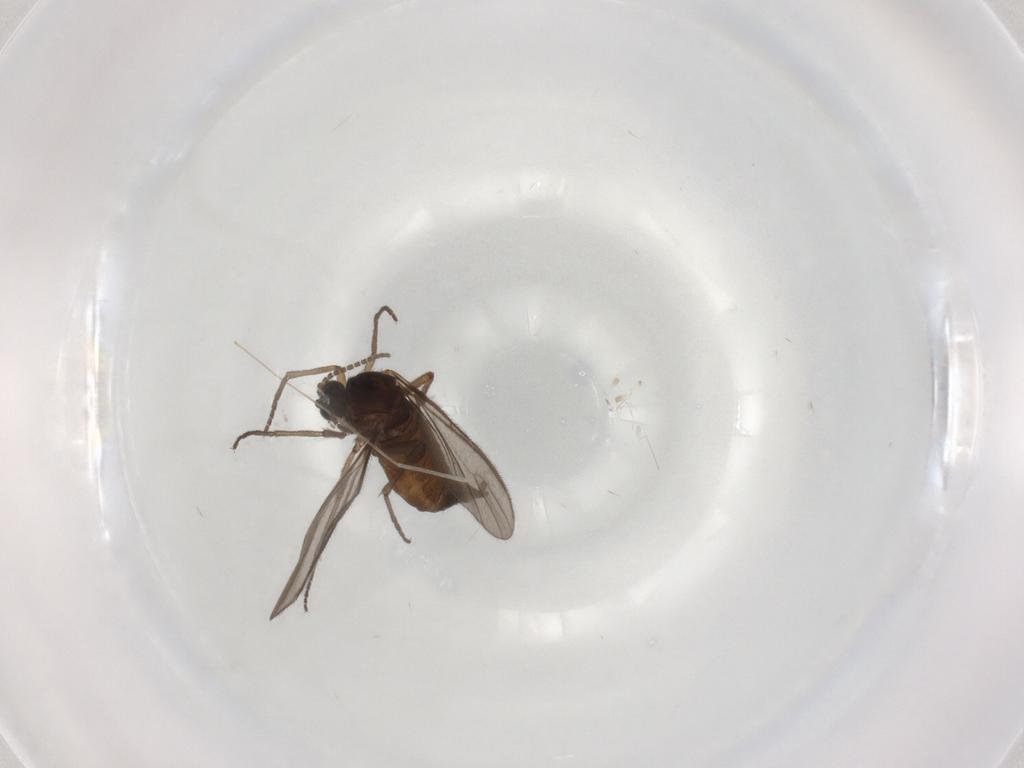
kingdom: Animalia
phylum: Arthropoda
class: Insecta
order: Diptera
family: Sciaridae
